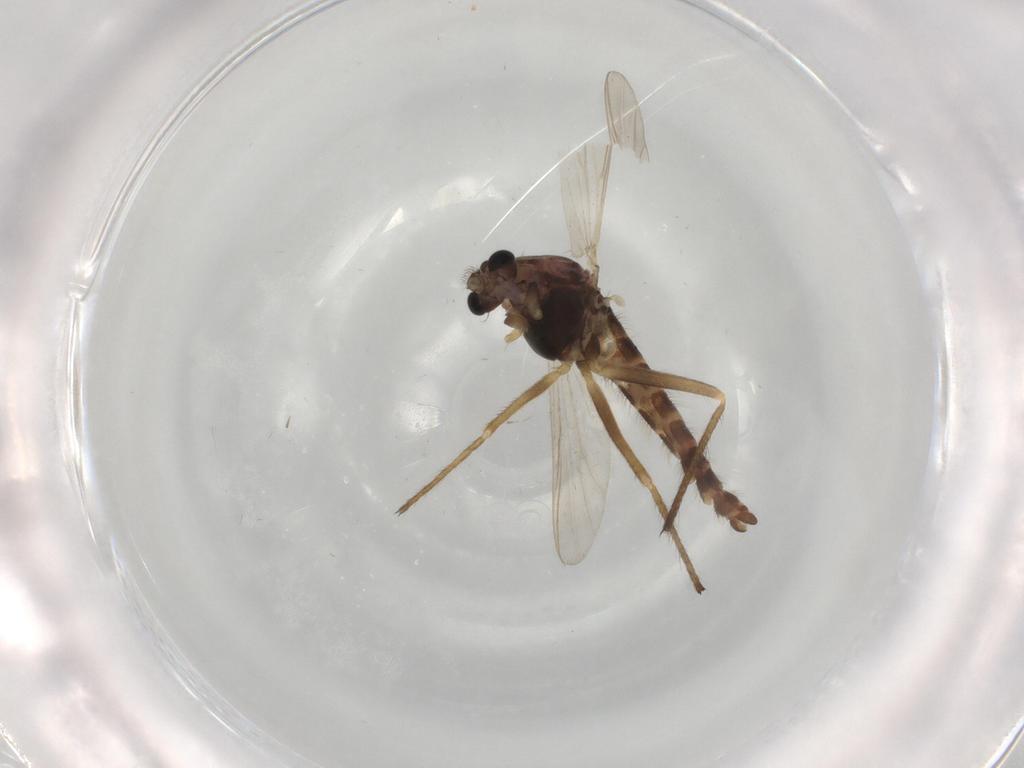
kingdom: Animalia
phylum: Arthropoda
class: Insecta
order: Diptera
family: Chironomidae
